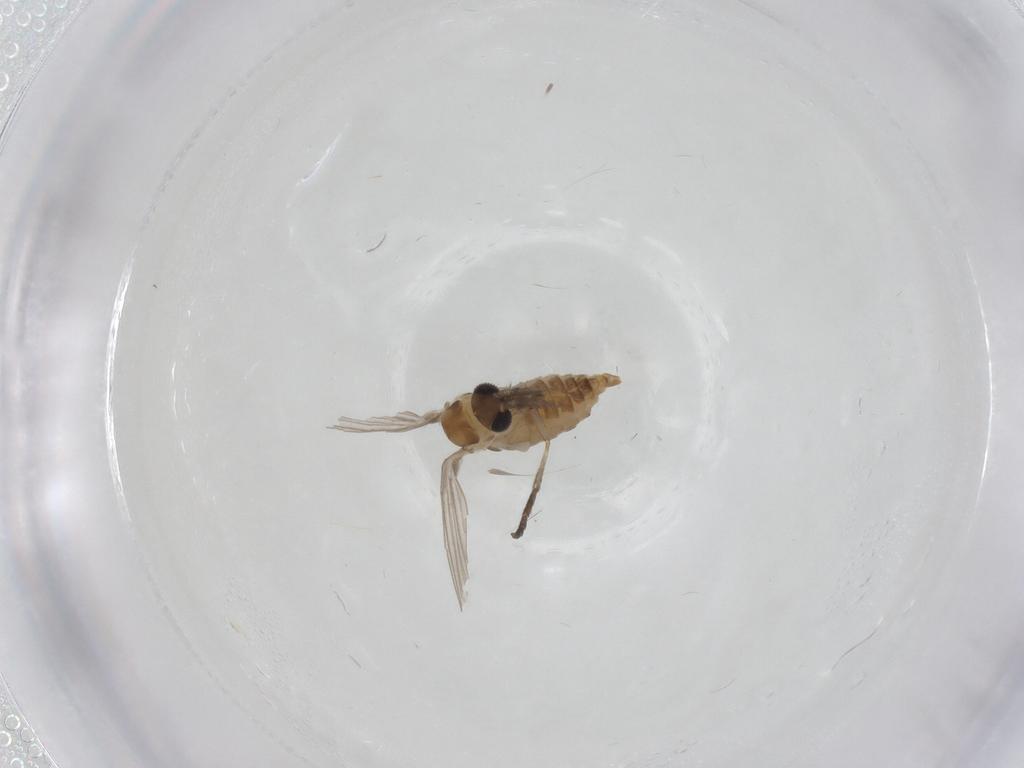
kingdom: Animalia
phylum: Arthropoda
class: Insecta
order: Diptera
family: Psychodidae
